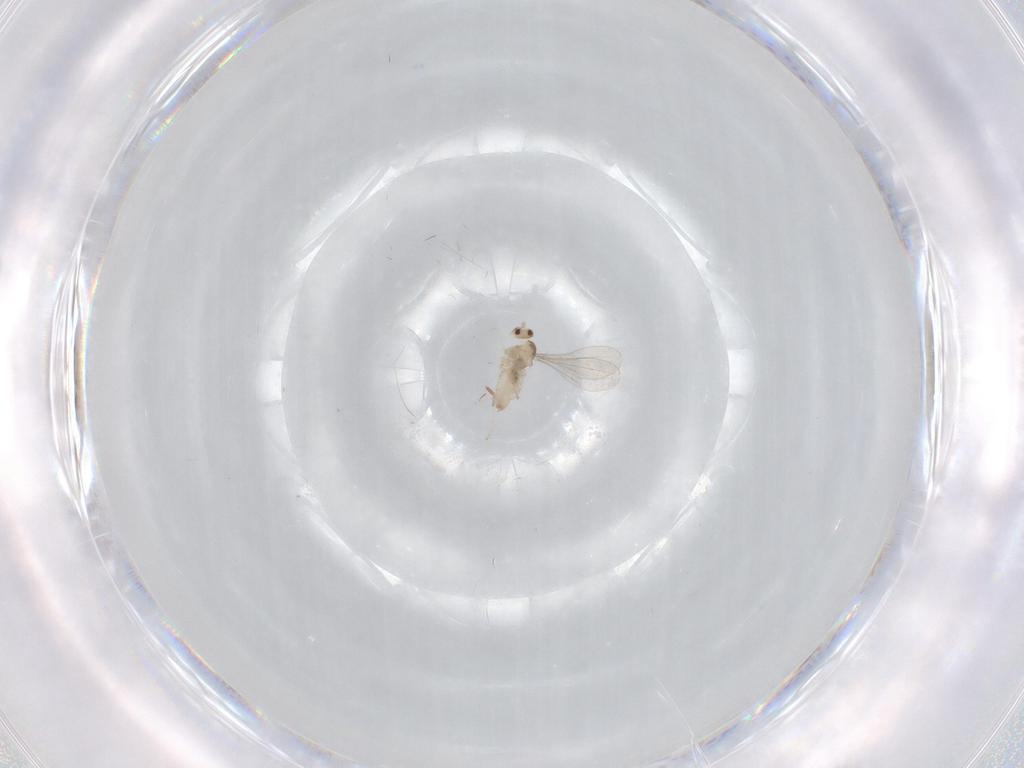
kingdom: Animalia
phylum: Arthropoda
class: Insecta
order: Diptera
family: Cecidomyiidae
